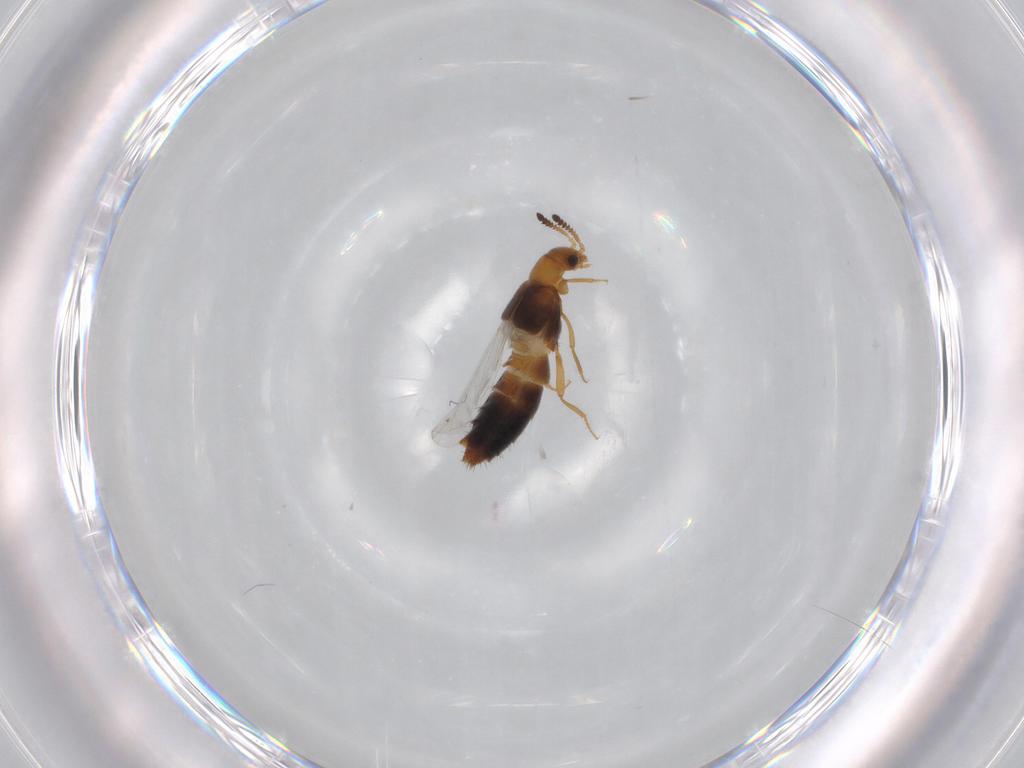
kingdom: Animalia
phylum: Arthropoda
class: Insecta
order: Coleoptera
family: Staphylinidae
